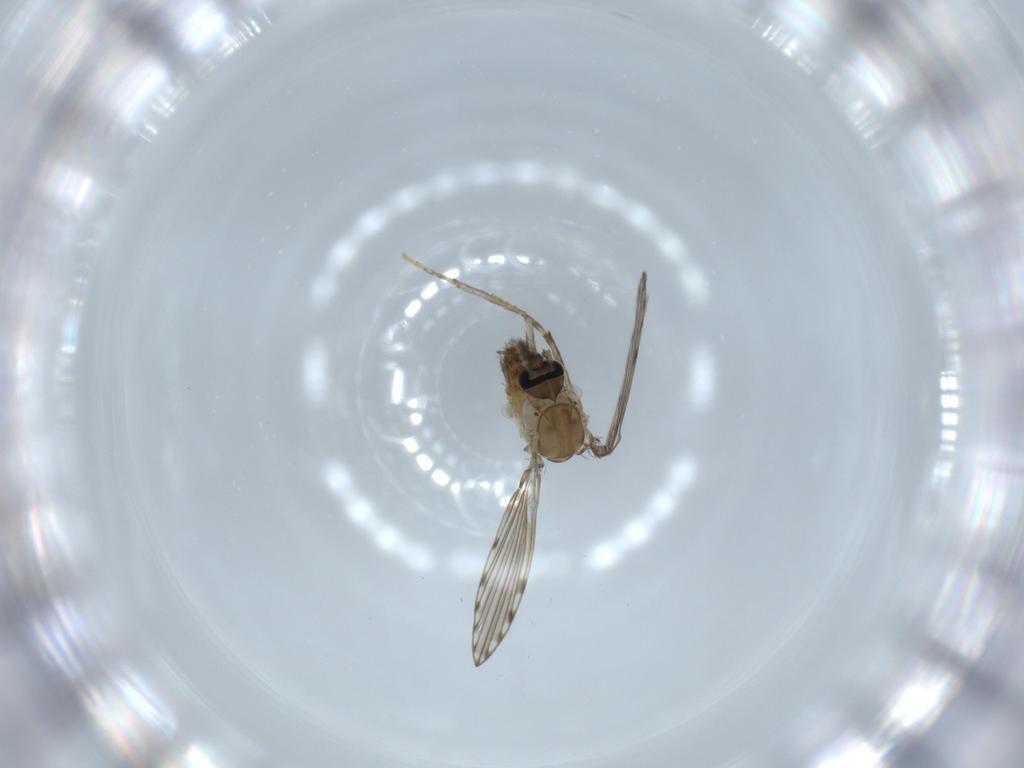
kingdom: Animalia
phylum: Arthropoda
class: Insecta
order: Diptera
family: Psychodidae
